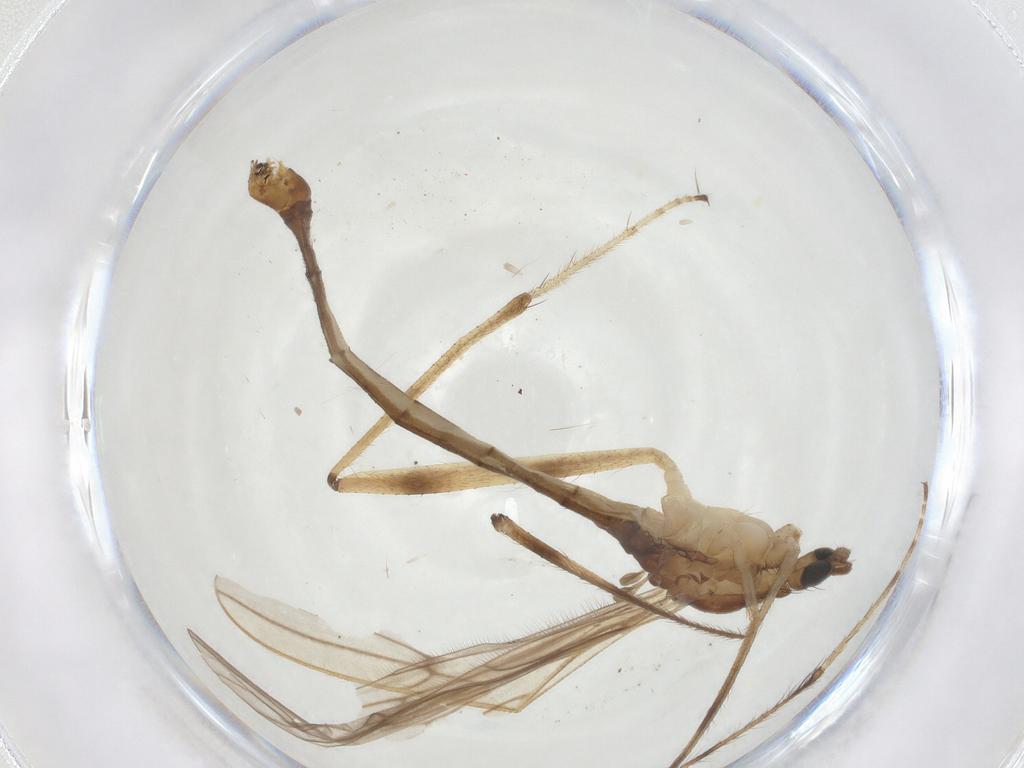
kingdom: Animalia
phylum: Arthropoda
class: Insecta
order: Diptera
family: Limoniidae
